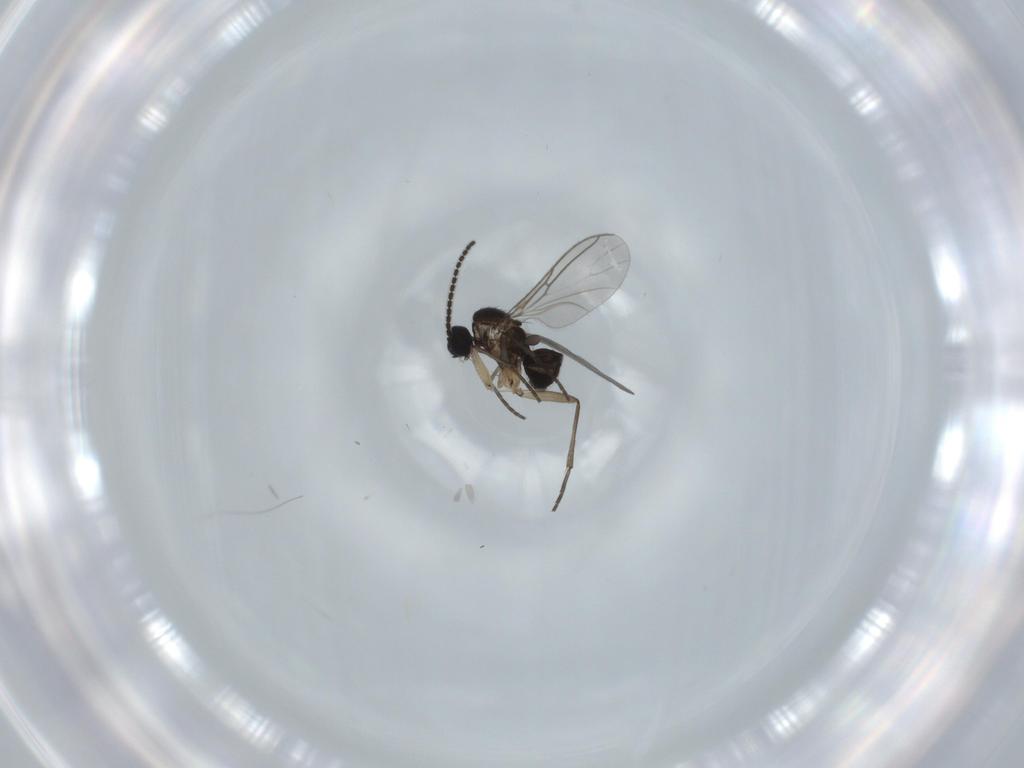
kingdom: Animalia
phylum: Arthropoda
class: Insecta
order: Diptera
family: Sciaridae
